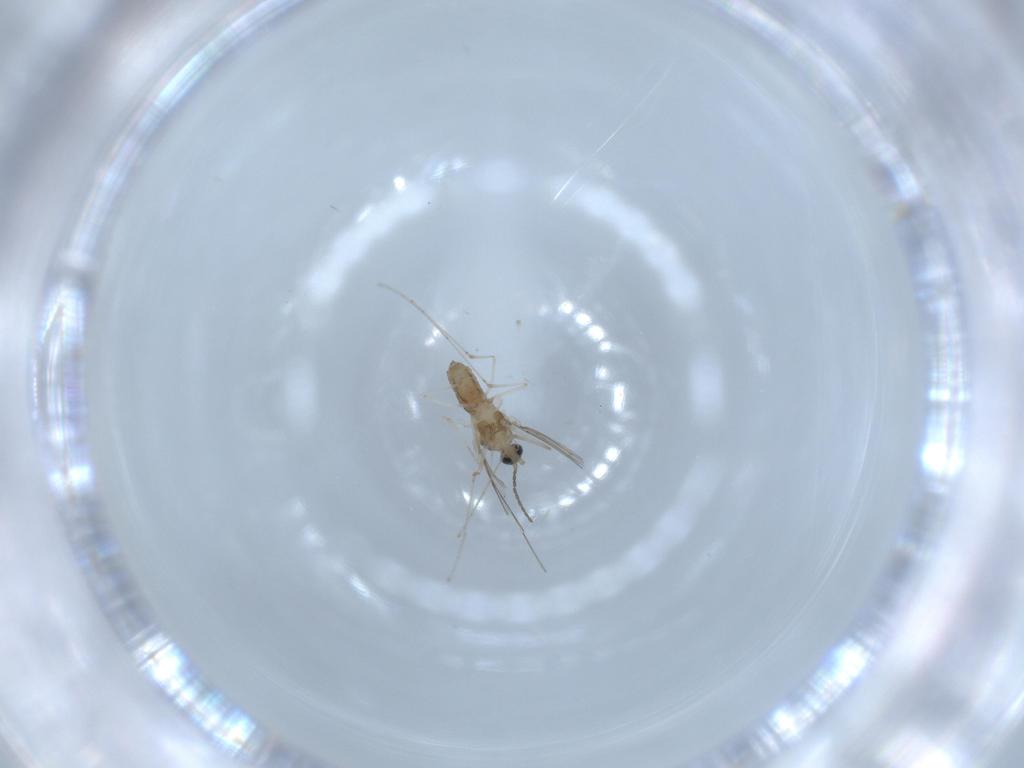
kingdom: Animalia
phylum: Arthropoda
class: Insecta
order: Diptera
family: Cecidomyiidae
